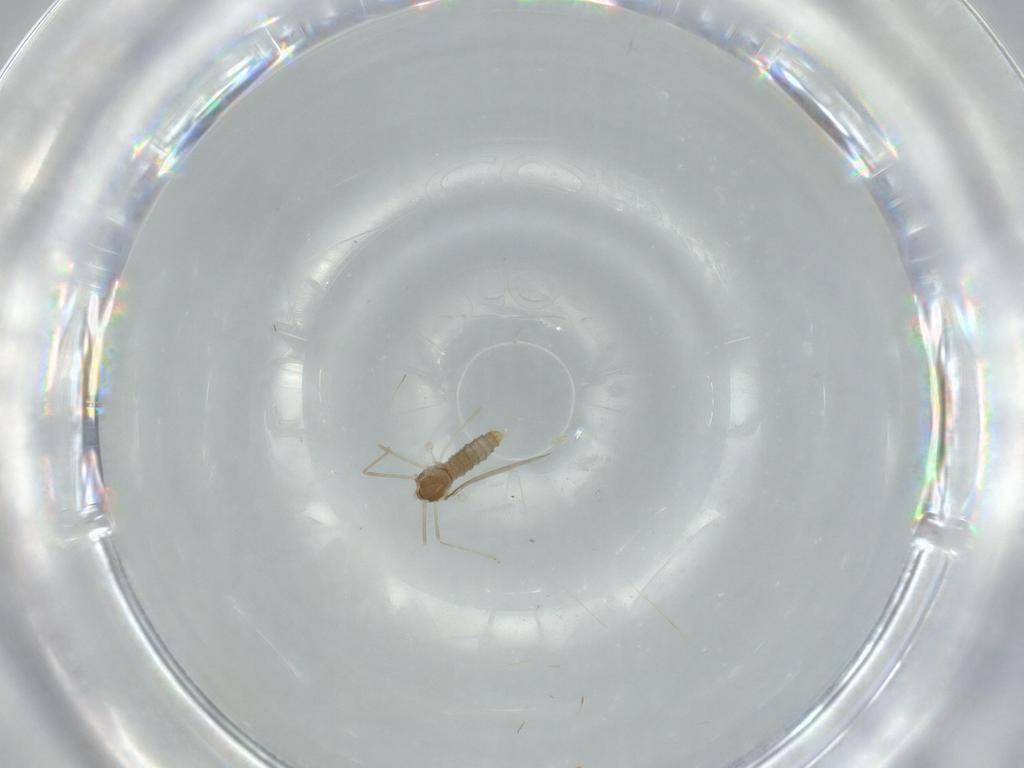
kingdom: Animalia
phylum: Arthropoda
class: Insecta
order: Diptera
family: Cecidomyiidae
